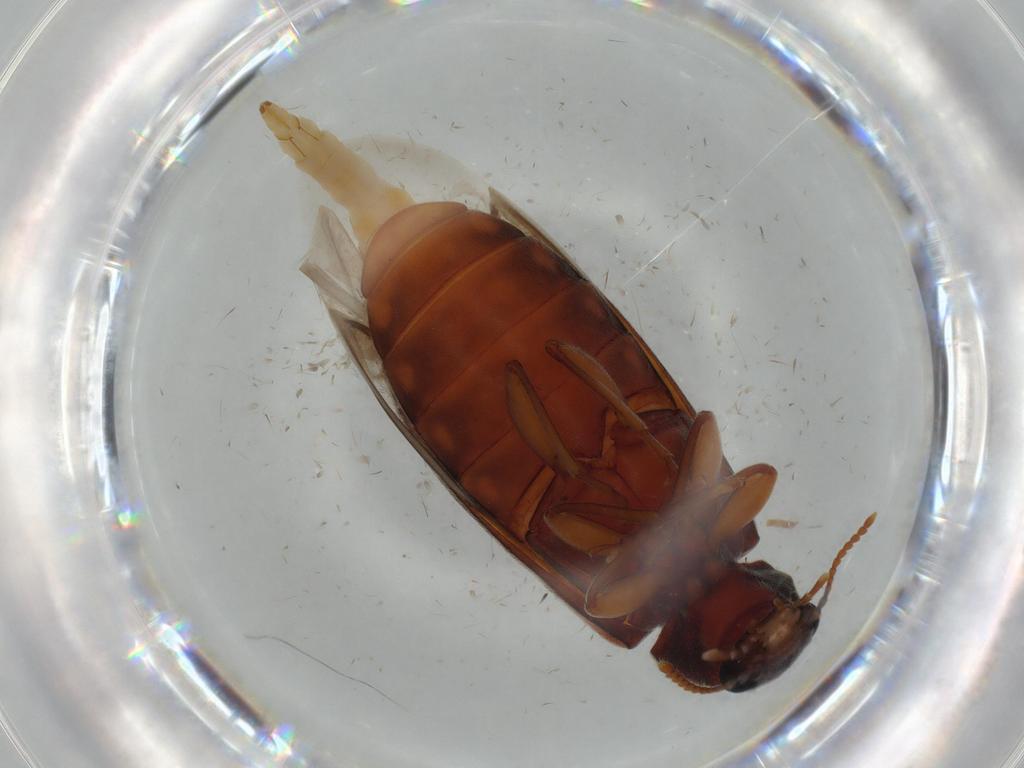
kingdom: Animalia
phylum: Arthropoda
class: Insecta
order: Coleoptera
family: Mycteridae
